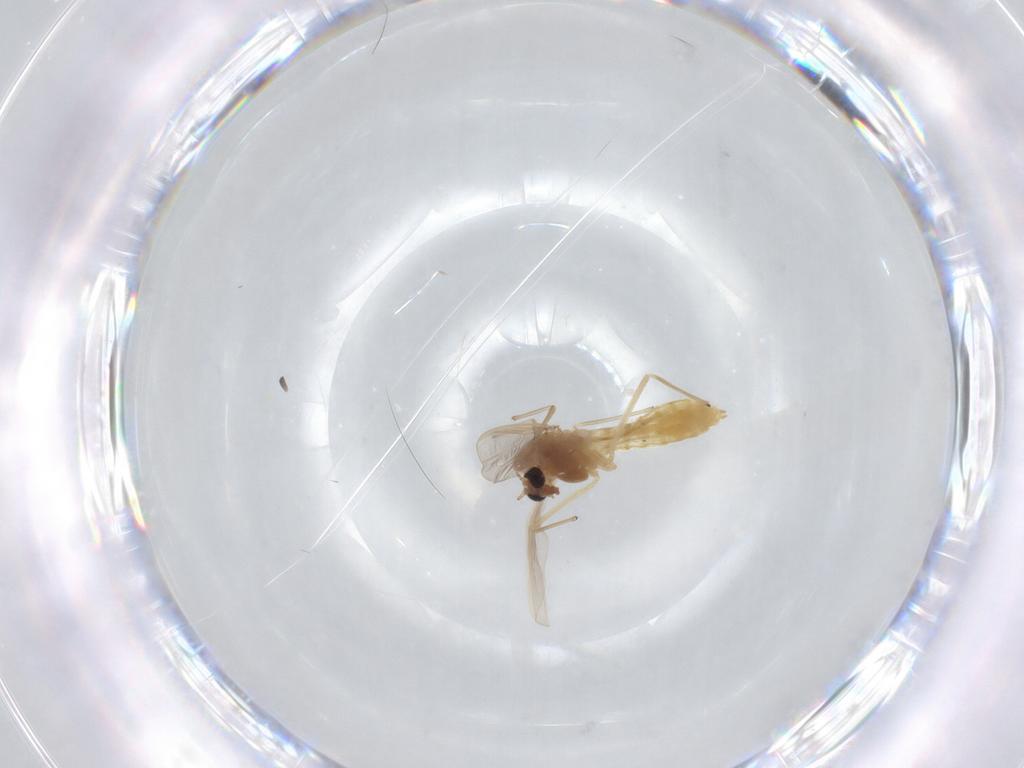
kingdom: Animalia
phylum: Arthropoda
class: Insecta
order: Diptera
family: Chironomidae
